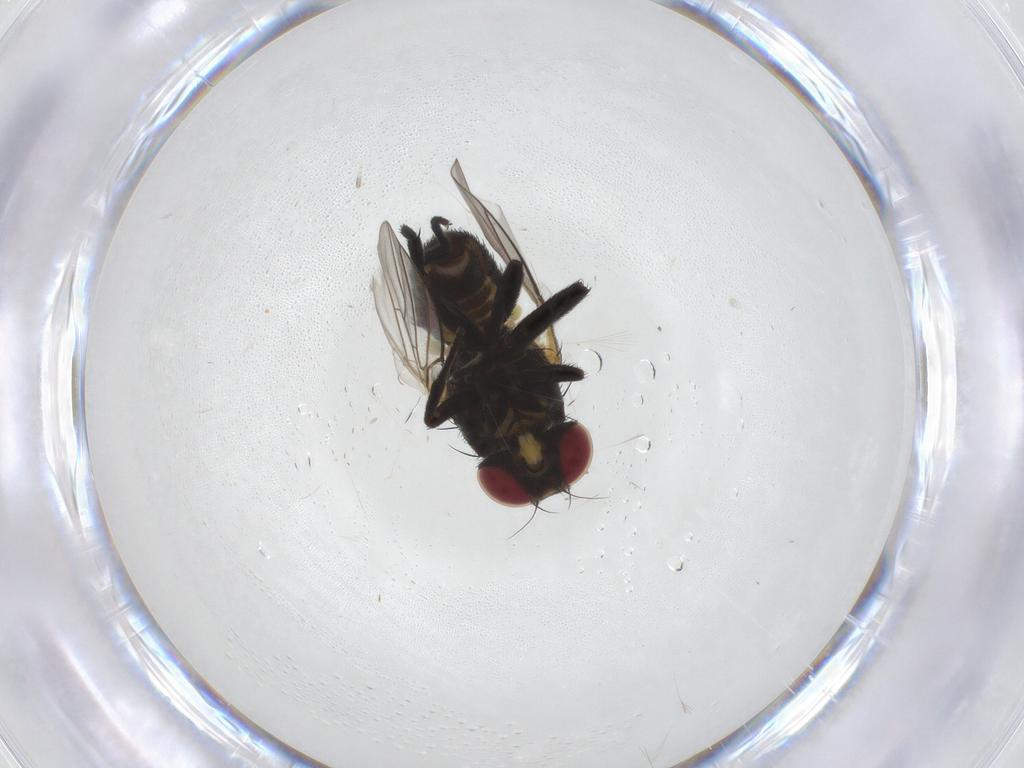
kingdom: Animalia
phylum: Arthropoda
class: Insecta
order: Diptera
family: Agromyzidae
